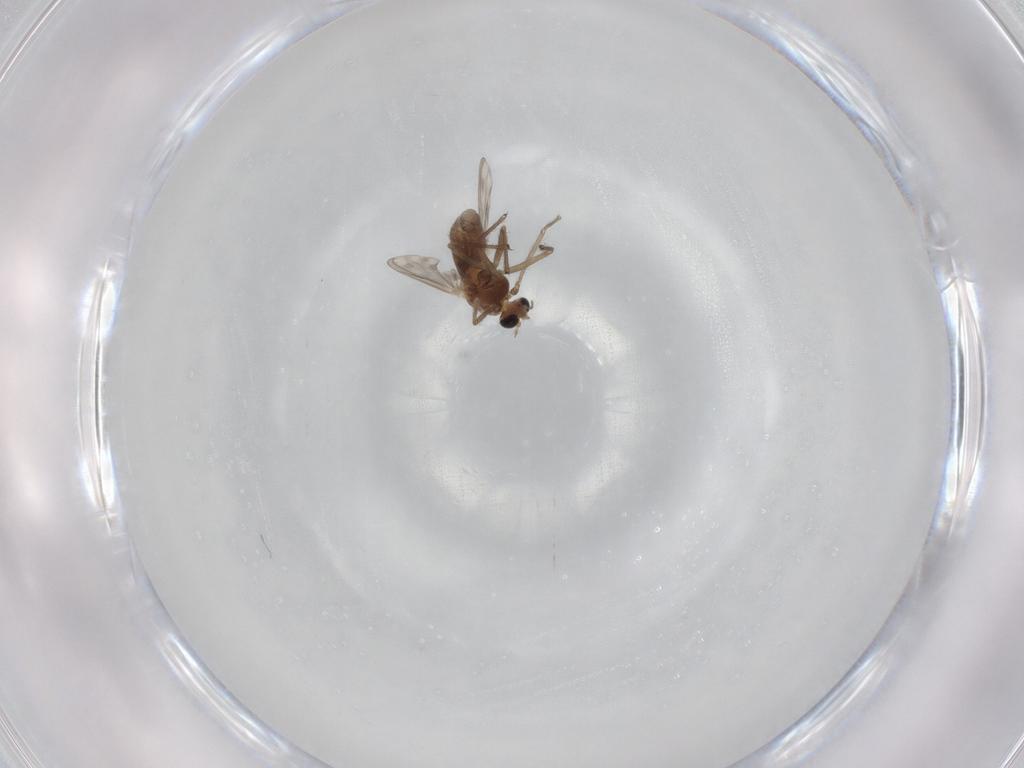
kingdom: Animalia
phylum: Arthropoda
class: Insecta
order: Diptera
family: Chironomidae
